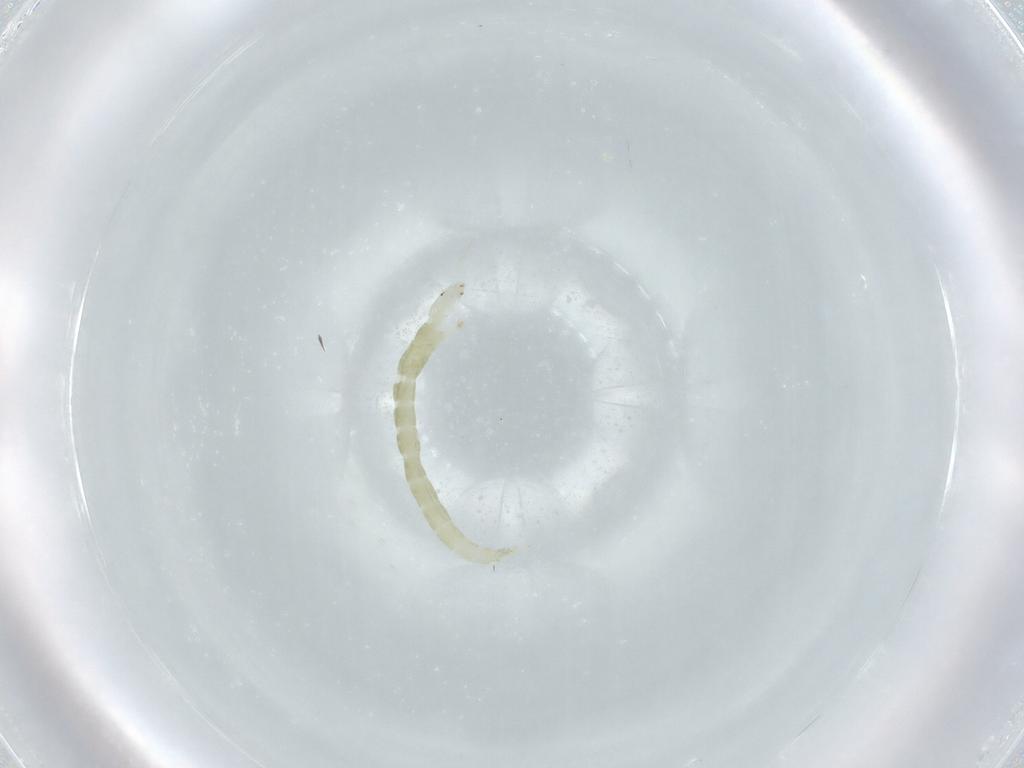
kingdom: Animalia
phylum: Arthropoda
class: Insecta
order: Diptera
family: Chironomidae
